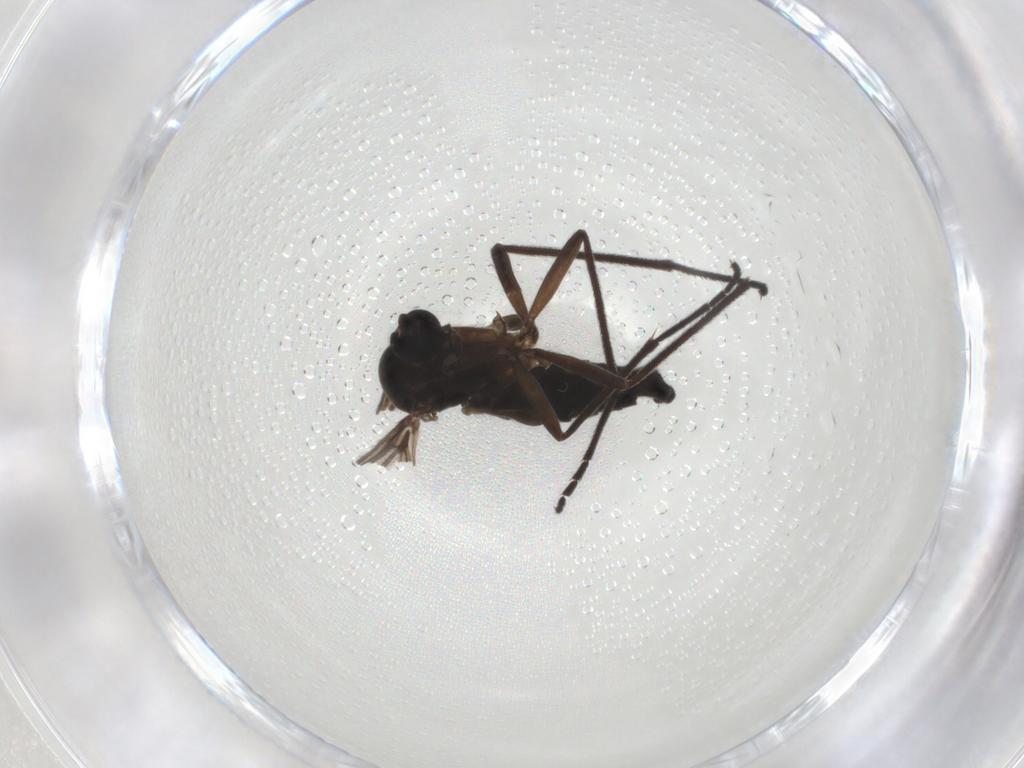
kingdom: Animalia
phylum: Arthropoda
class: Insecta
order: Diptera
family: Sciaridae
